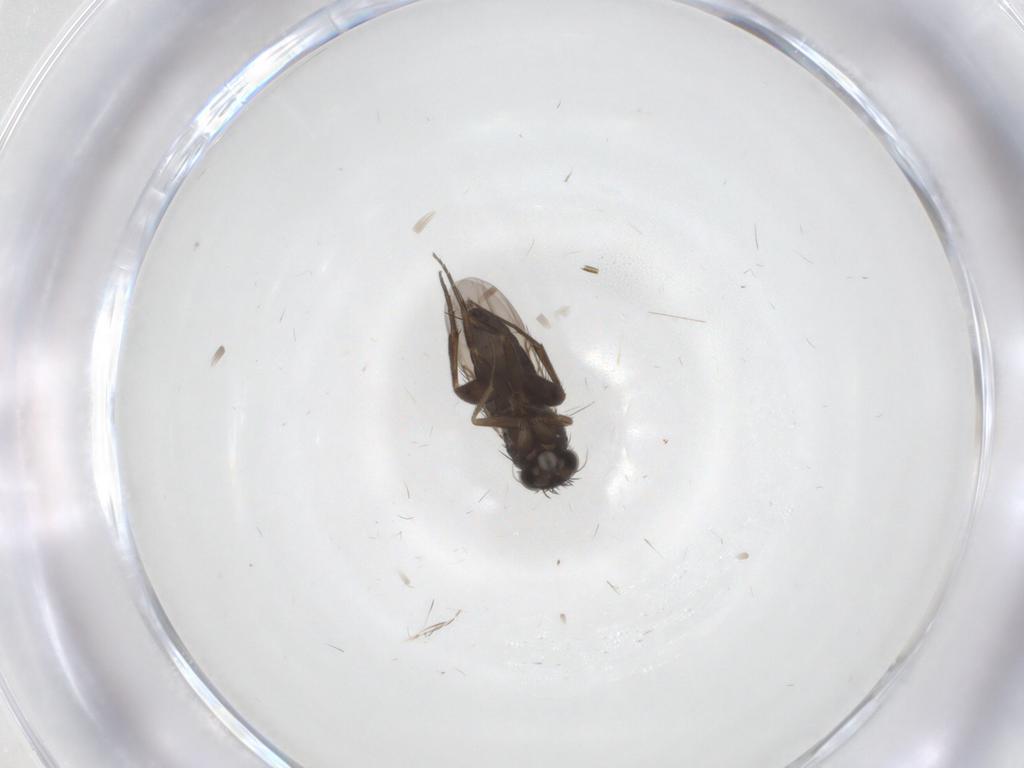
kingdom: Animalia
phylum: Arthropoda
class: Insecta
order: Diptera
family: Phoridae
